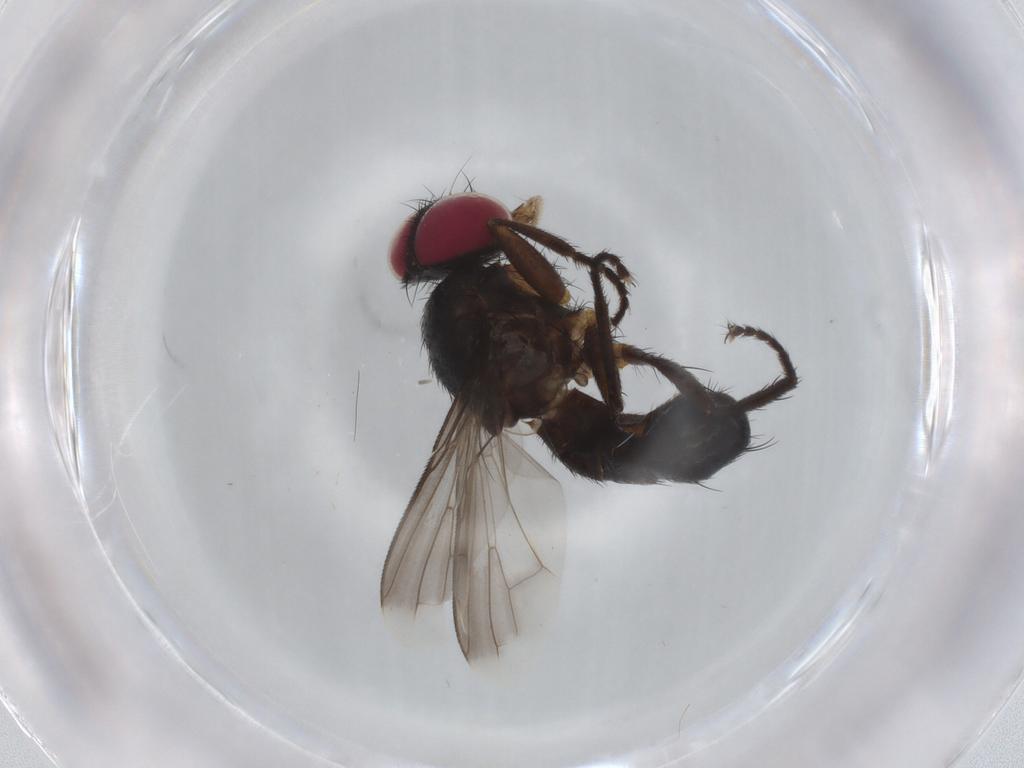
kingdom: Animalia
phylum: Arthropoda
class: Insecta
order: Diptera
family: Calliphoridae
